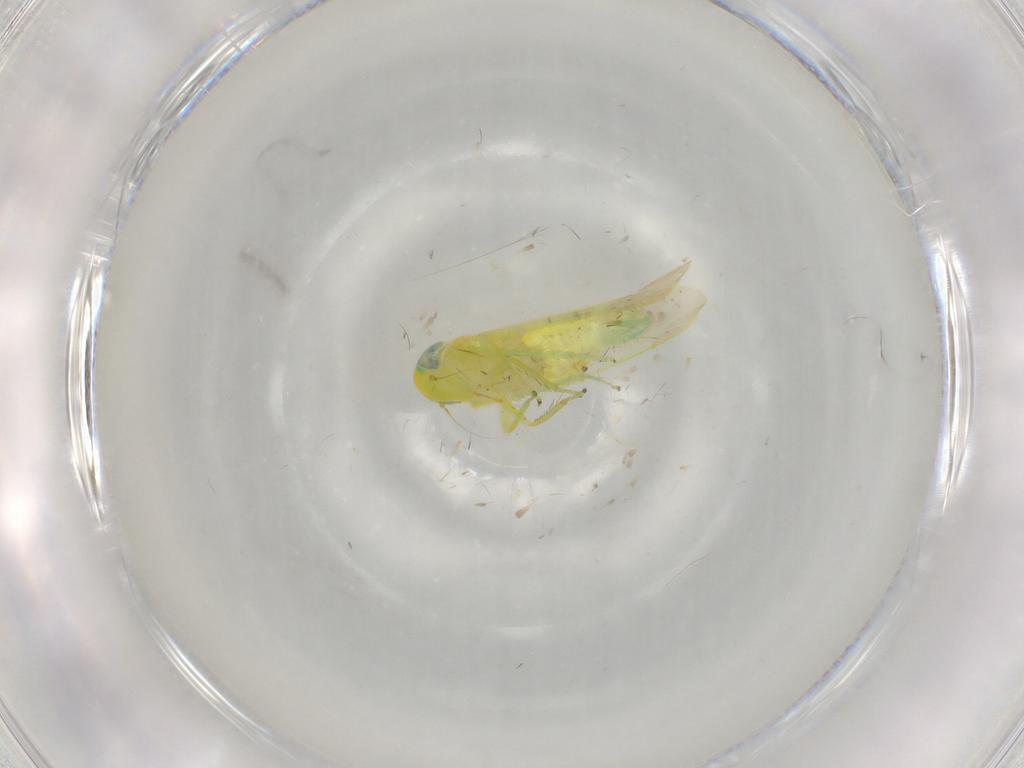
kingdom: Animalia
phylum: Arthropoda
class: Insecta
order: Hemiptera
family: Cicadellidae
